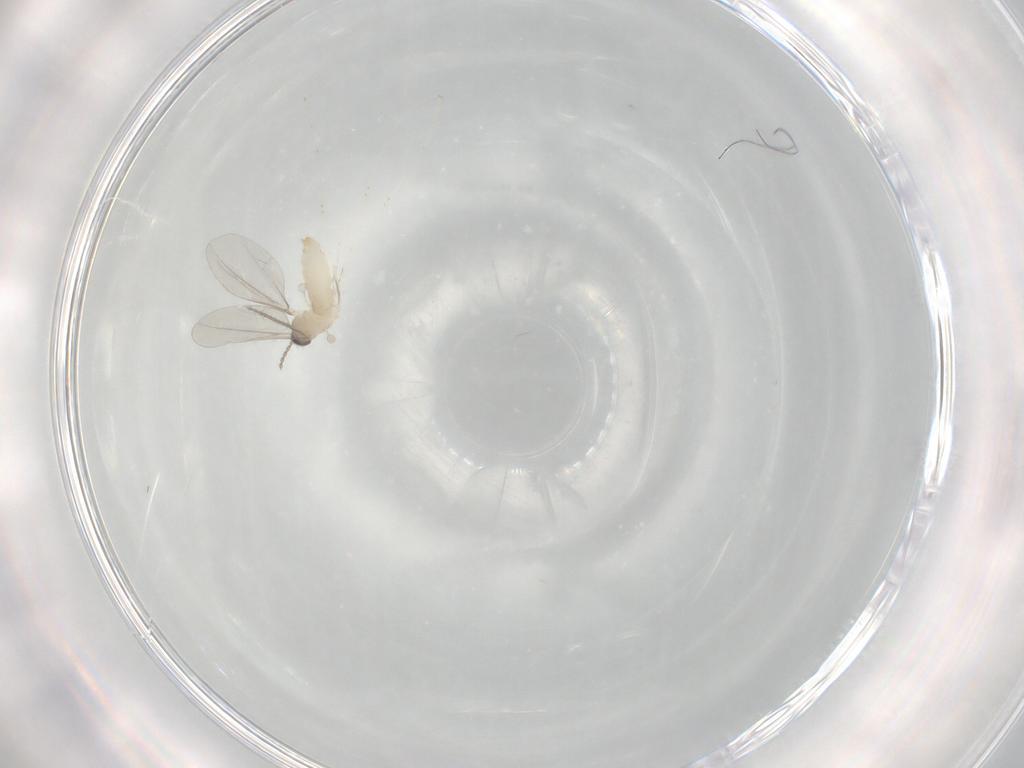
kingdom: Animalia
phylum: Arthropoda
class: Insecta
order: Diptera
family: Cecidomyiidae
